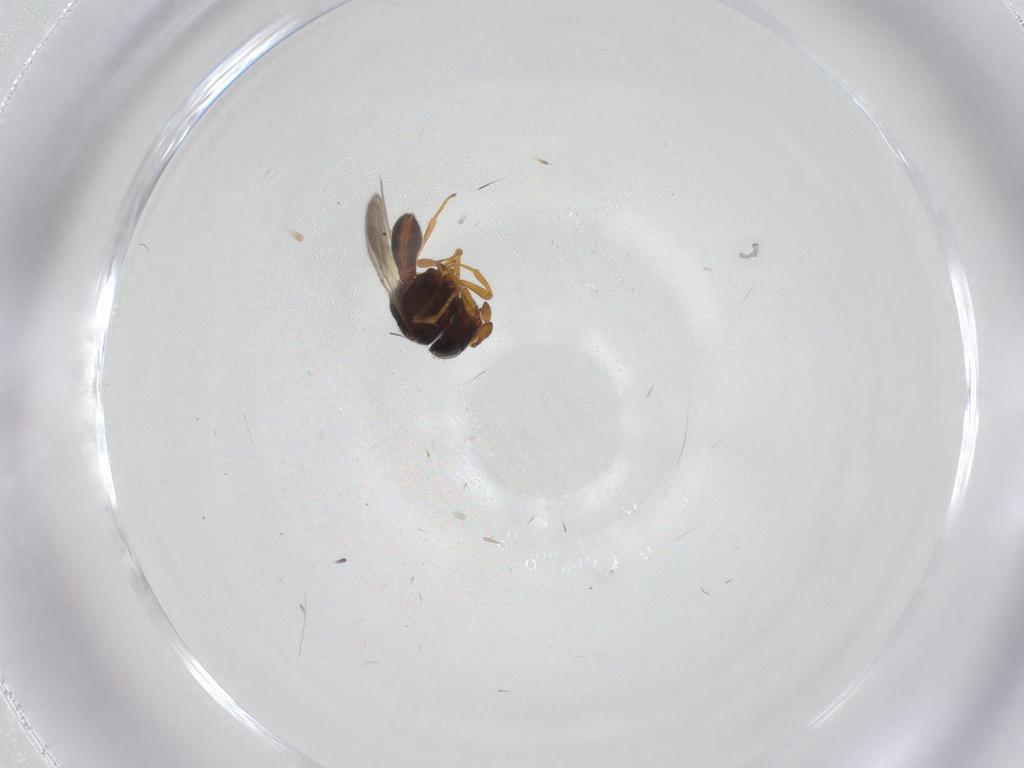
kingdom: Animalia
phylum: Arthropoda
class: Insecta
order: Hymenoptera
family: Scelionidae
